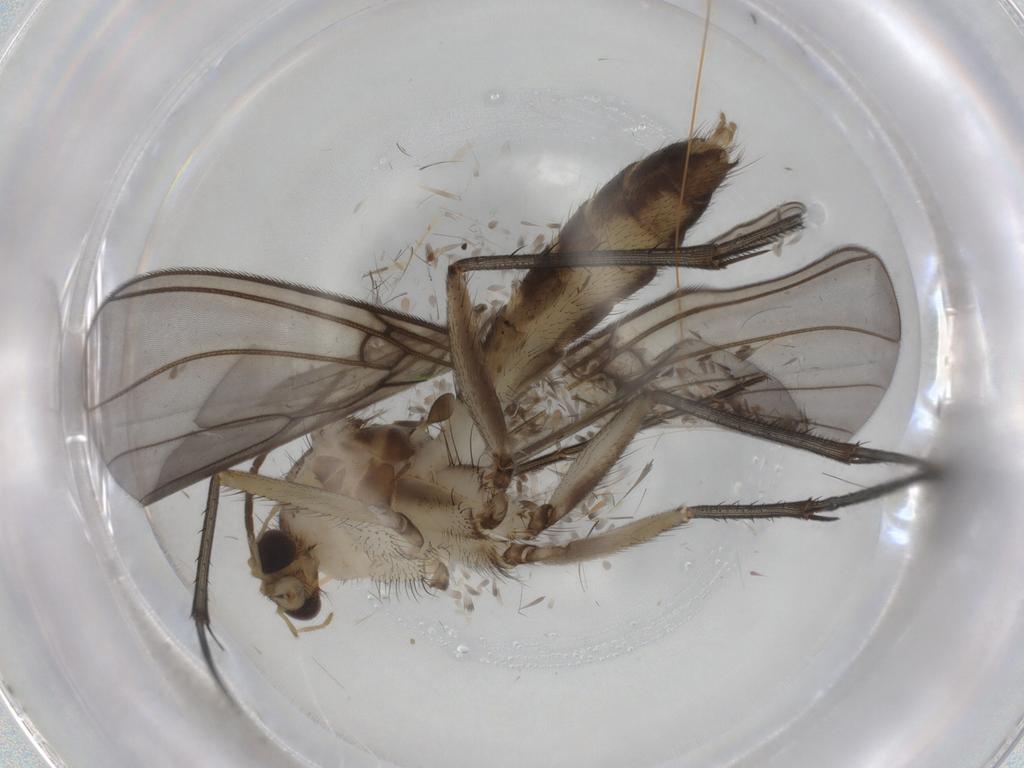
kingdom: Animalia
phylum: Arthropoda
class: Insecta
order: Diptera
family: Mycetophilidae
